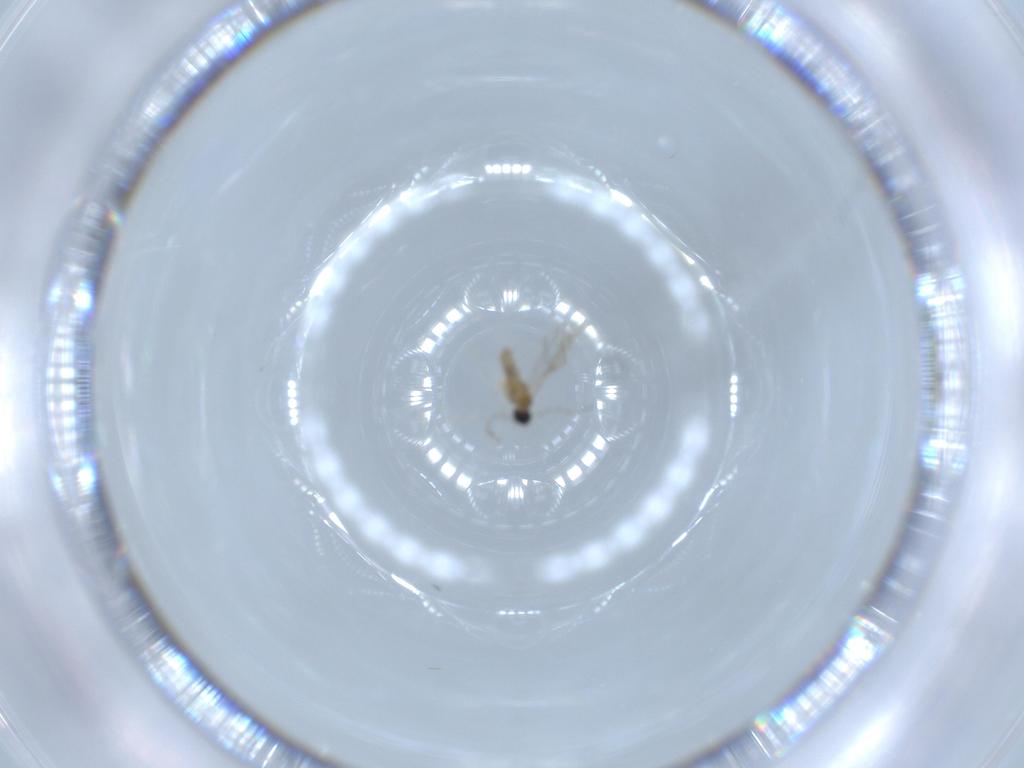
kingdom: Animalia
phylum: Arthropoda
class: Insecta
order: Diptera
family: Cecidomyiidae
